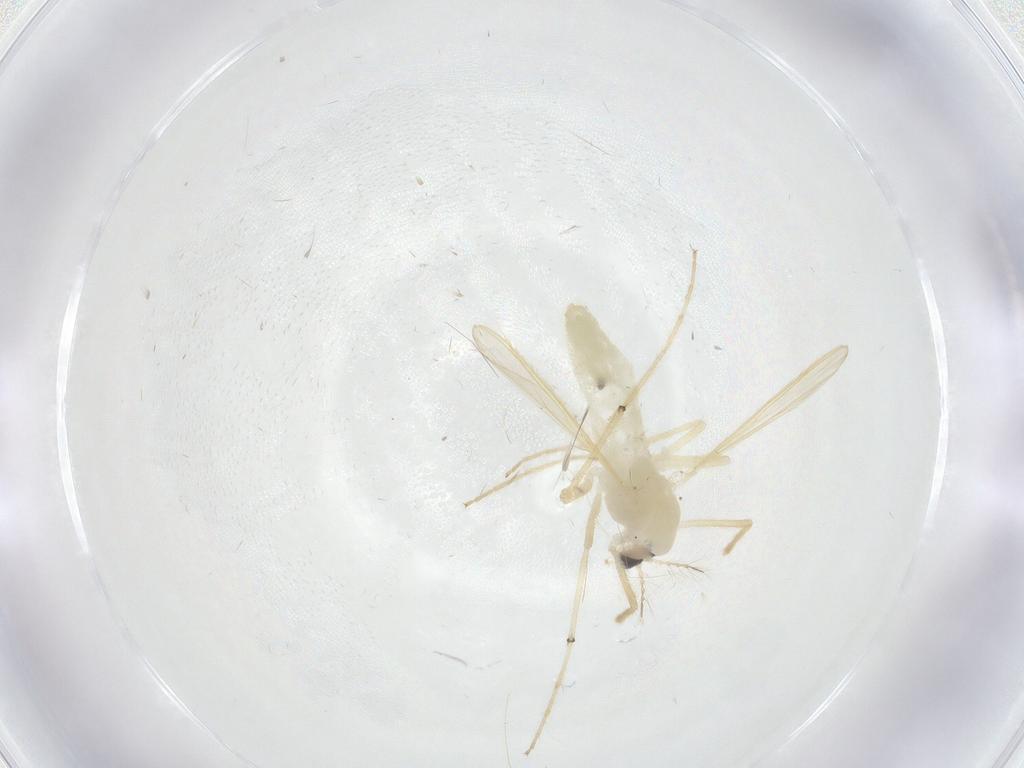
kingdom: Animalia
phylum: Arthropoda
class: Insecta
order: Diptera
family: Chironomidae
